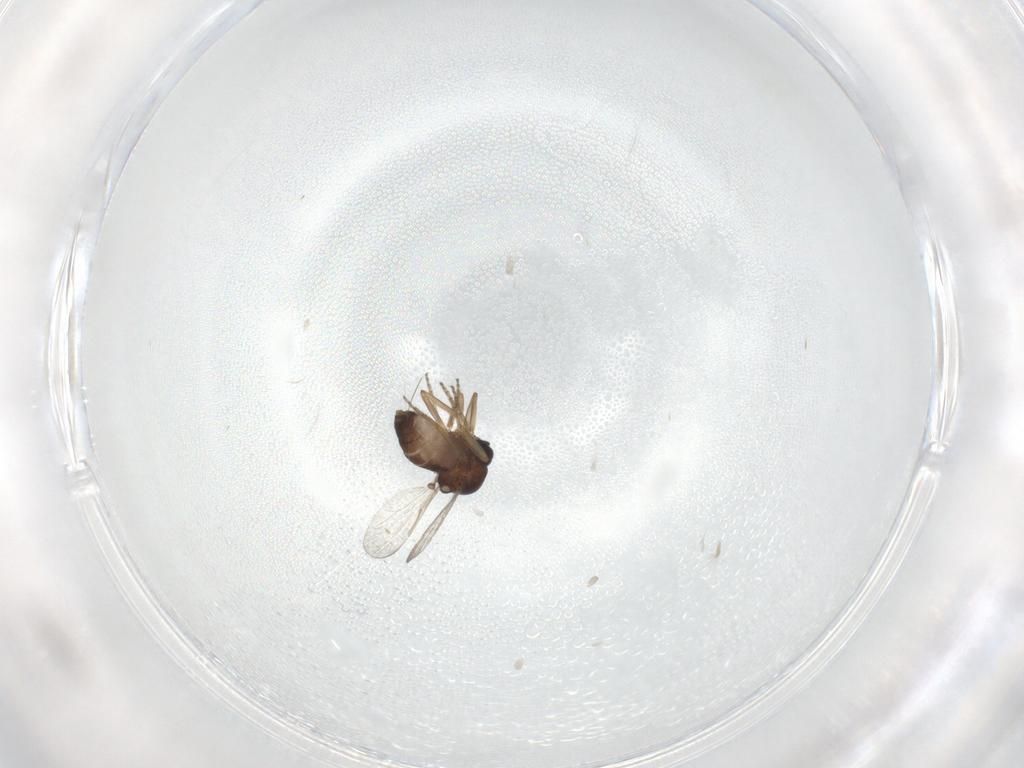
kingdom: Animalia
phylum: Arthropoda
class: Insecta
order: Diptera
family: Ceratopogonidae
